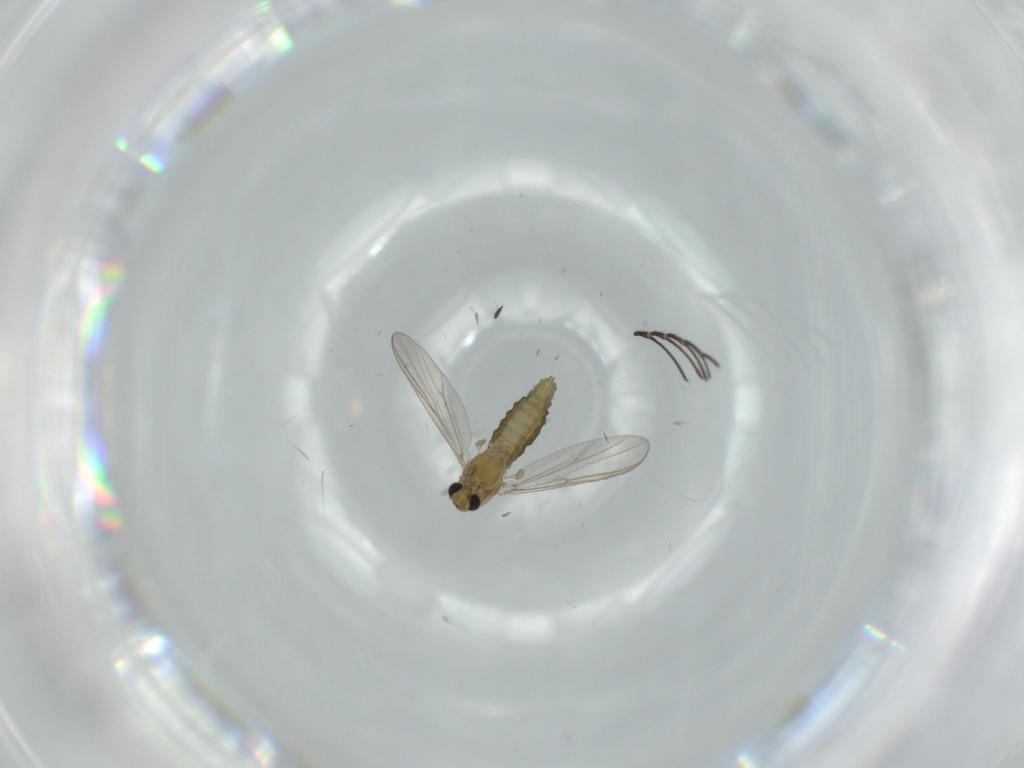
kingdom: Animalia
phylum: Arthropoda
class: Insecta
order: Diptera
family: Chironomidae
